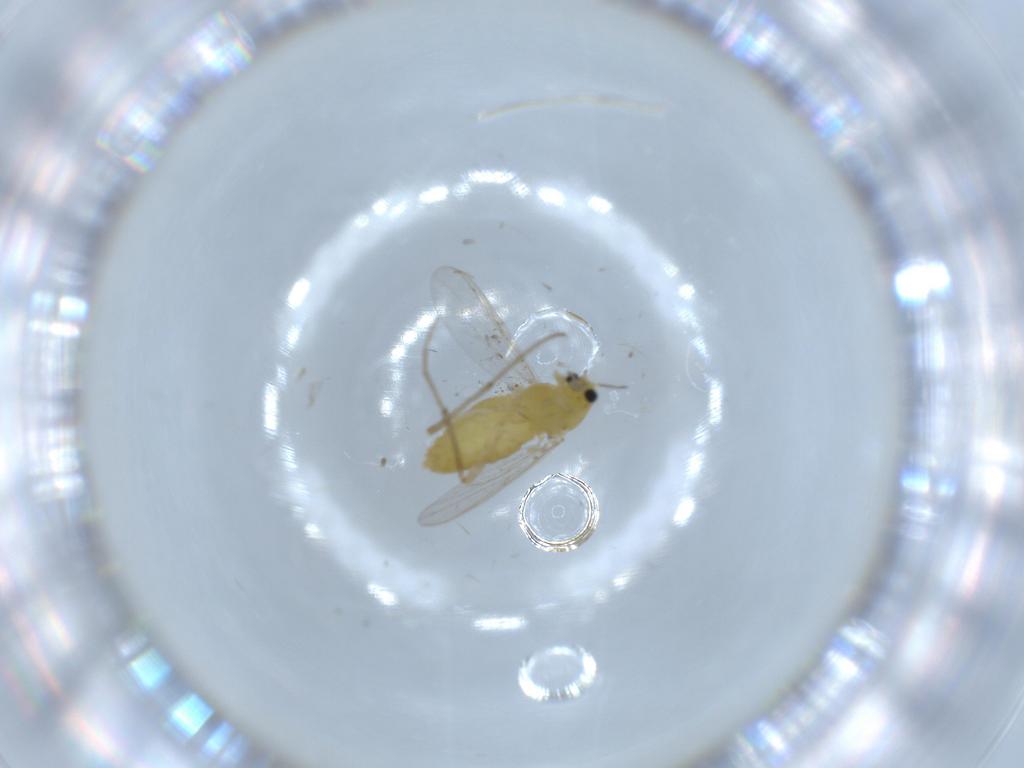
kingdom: Animalia
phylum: Arthropoda
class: Insecta
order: Diptera
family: Chironomidae
